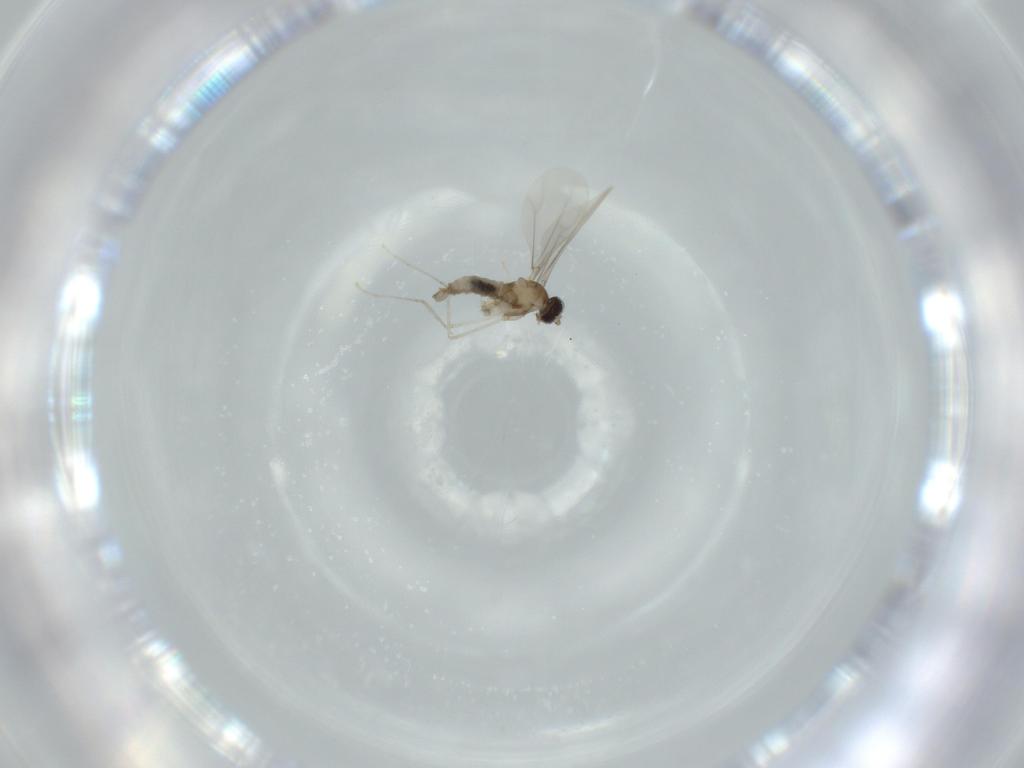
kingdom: Animalia
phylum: Arthropoda
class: Insecta
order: Diptera
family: Cecidomyiidae
